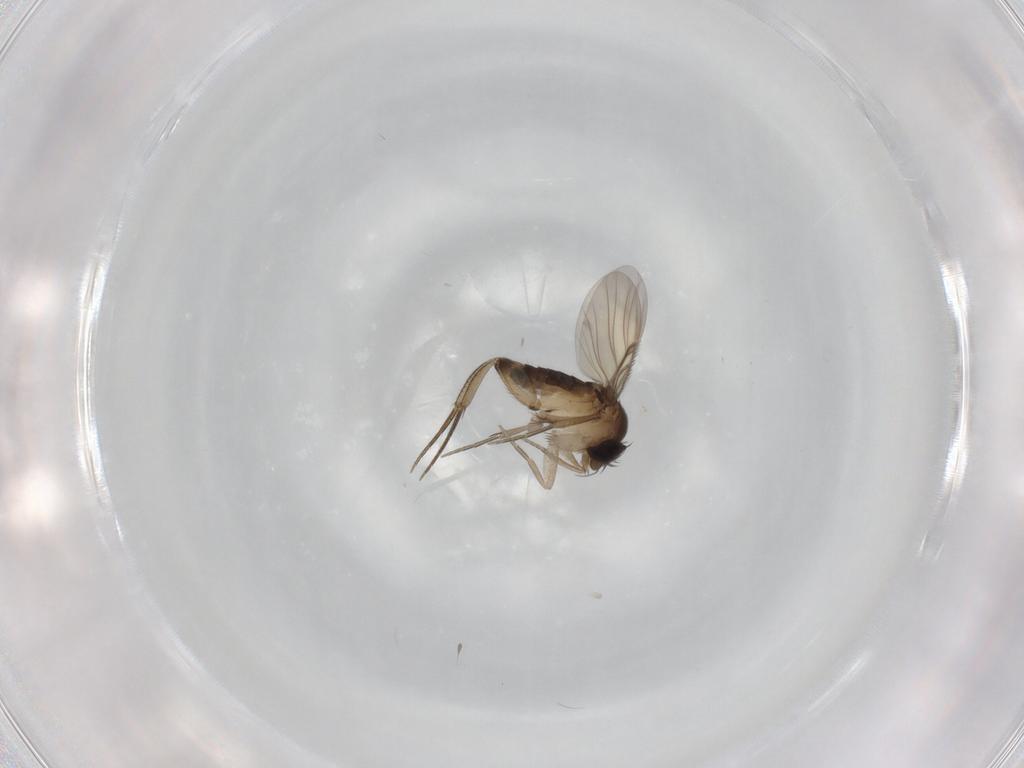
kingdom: Animalia
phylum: Arthropoda
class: Insecta
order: Diptera
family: Phoridae
